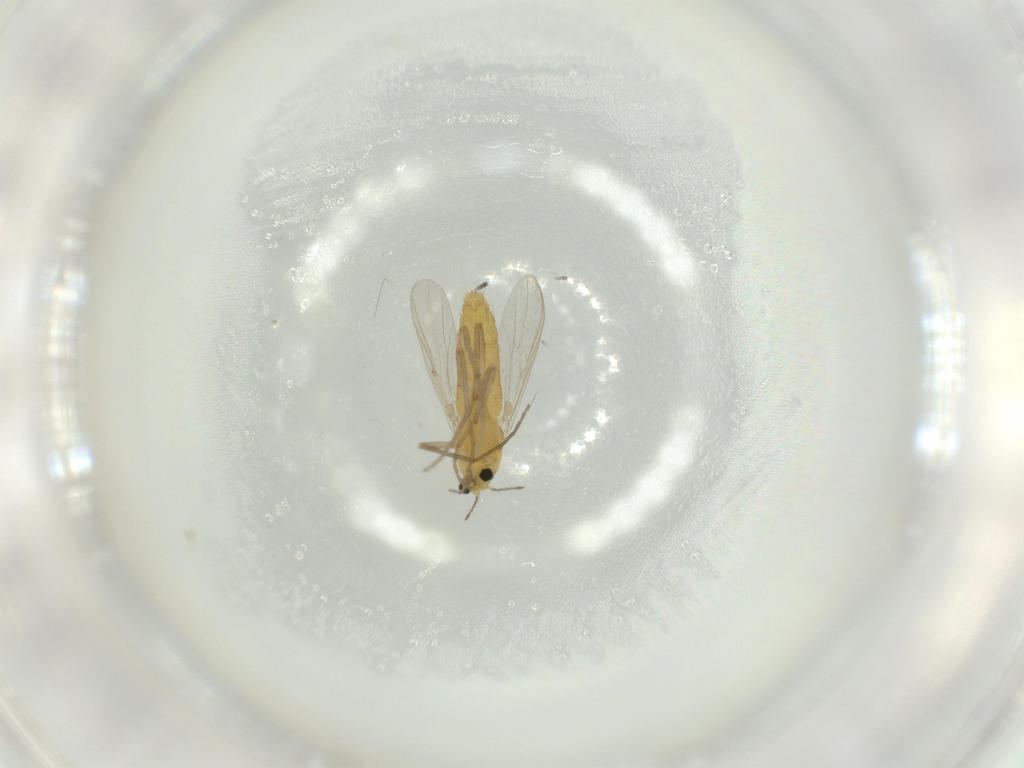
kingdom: Animalia
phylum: Arthropoda
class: Insecta
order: Diptera
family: Chironomidae
